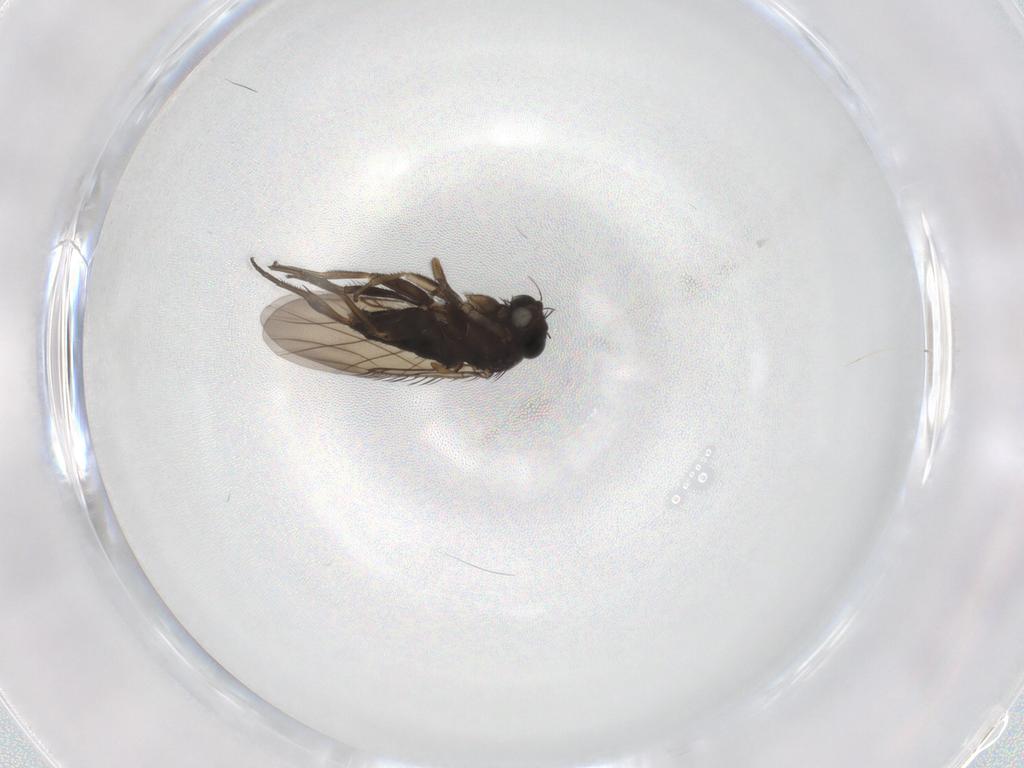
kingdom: Animalia
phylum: Arthropoda
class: Insecta
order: Diptera
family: Phoridae
